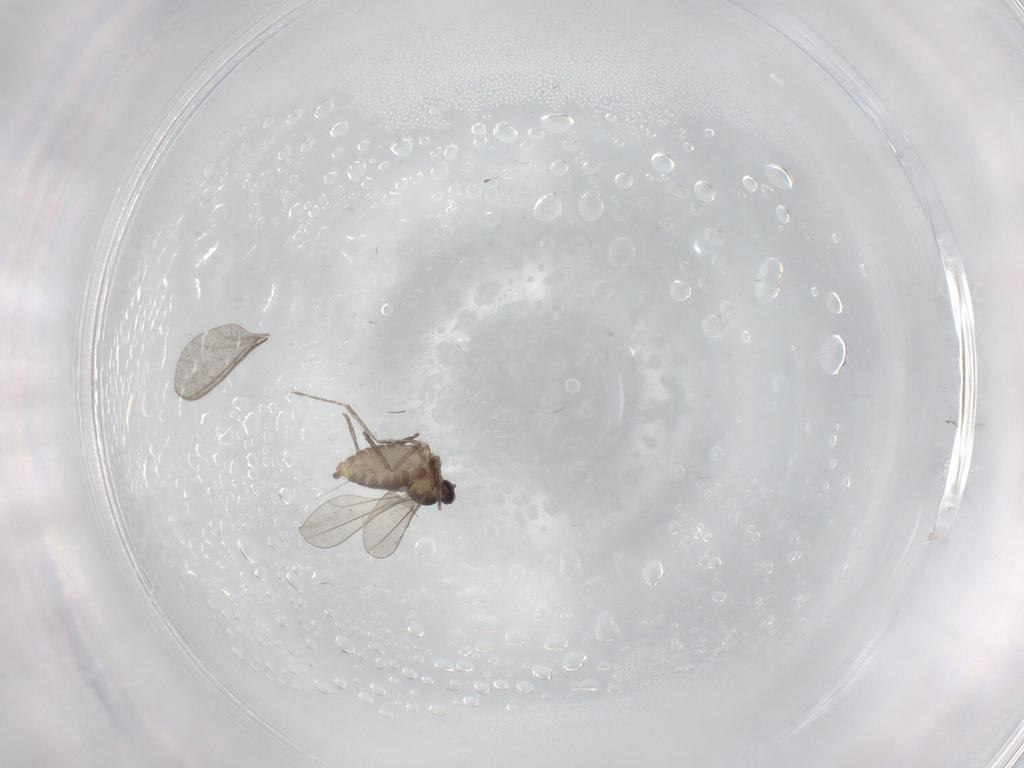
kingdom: Animalia
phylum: Arthropoda
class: Insecta
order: Diptera
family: Cecidomyiidae
